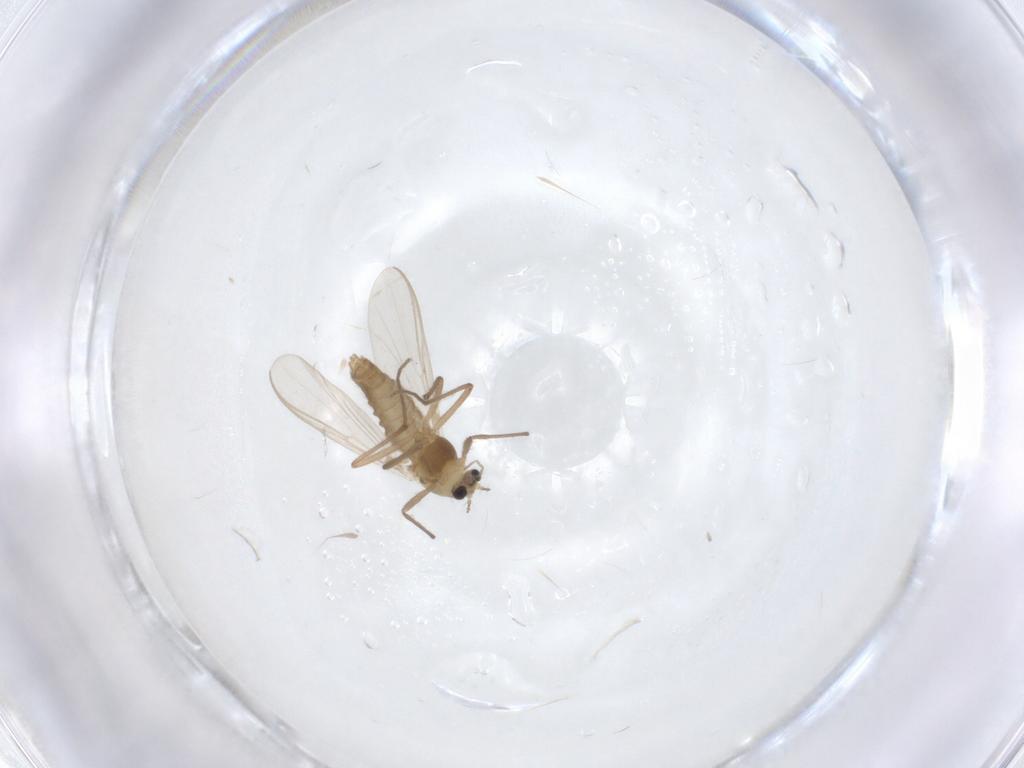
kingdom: Animalia
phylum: Arthropoda
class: Insecta
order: Diptera
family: Chironomidae
